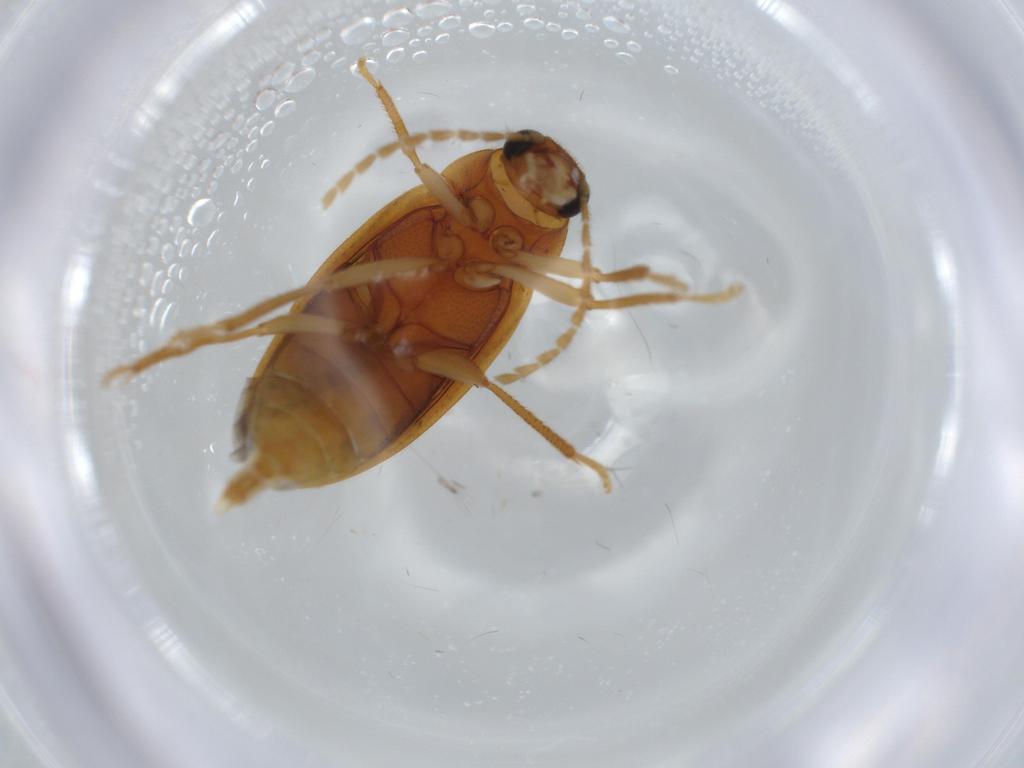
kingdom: Animalia
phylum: Arthropoda
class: Insecta
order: Coleoptera
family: Ptilodactylidae
